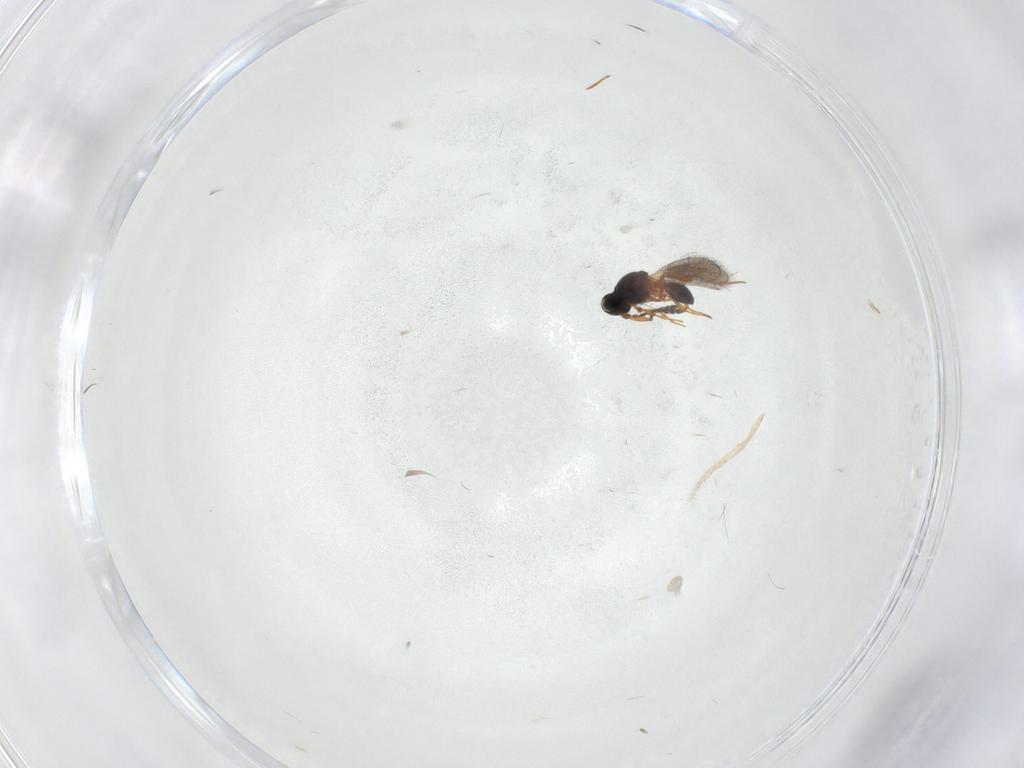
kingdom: Animalia
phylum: Arthropoda
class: Insecta
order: Hymenoptera
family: Platygastridae
